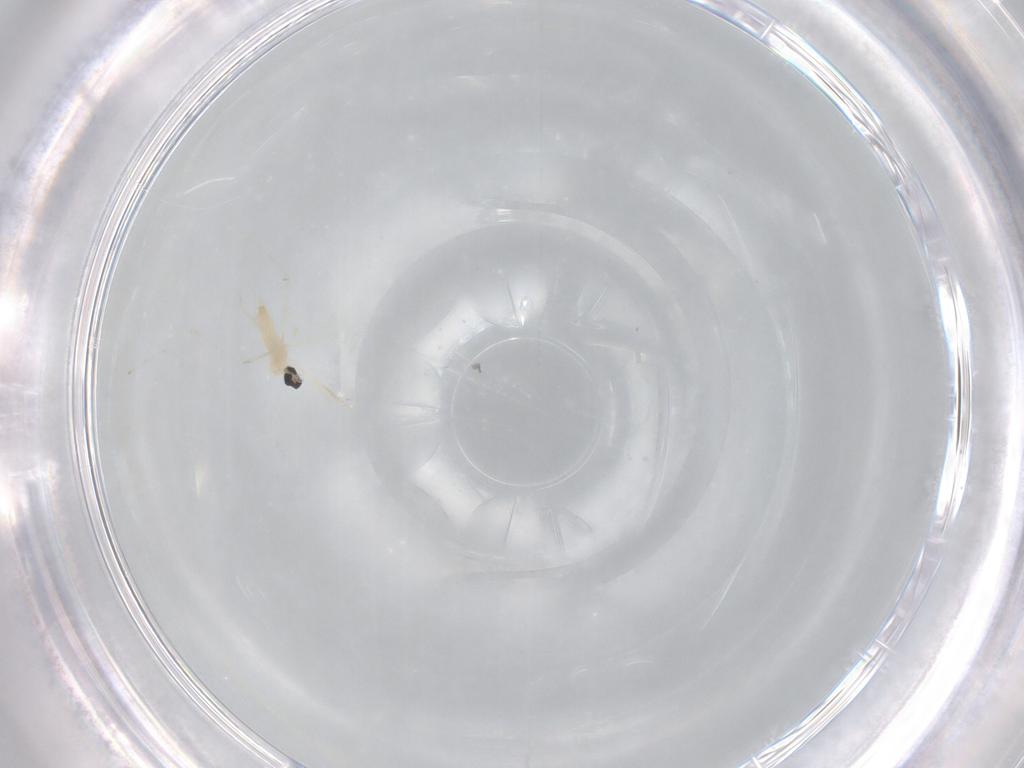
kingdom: Animalia
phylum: Arthropoda
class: Insecta
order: Diptera
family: Cecidomyiidae
